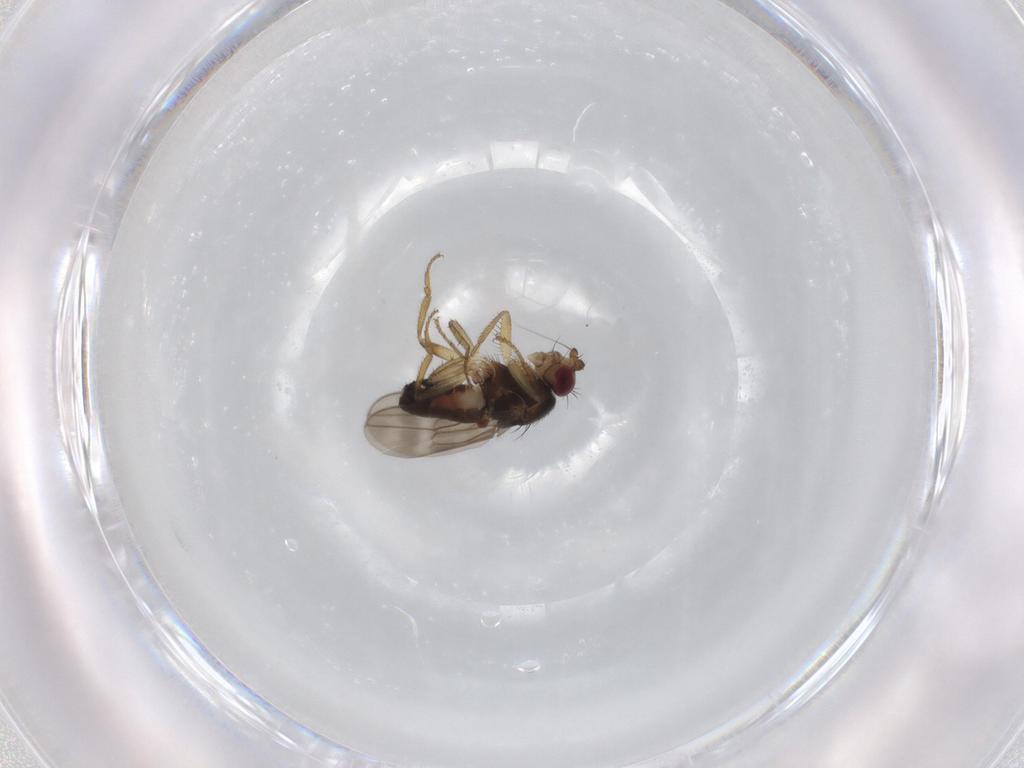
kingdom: Animalia
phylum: Arthropoda
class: Insecta
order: Diptera
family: Sphaeroceridae
